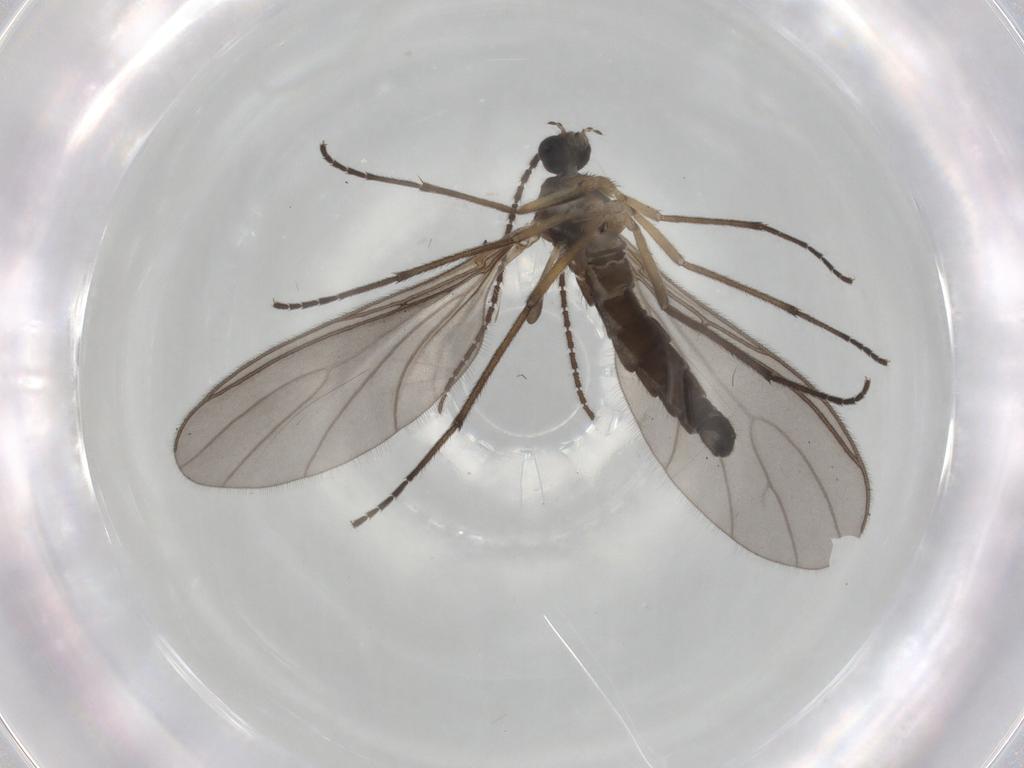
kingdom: Animalia
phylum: Arthropoda
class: Insecta
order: Diptera
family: Sciaridae
